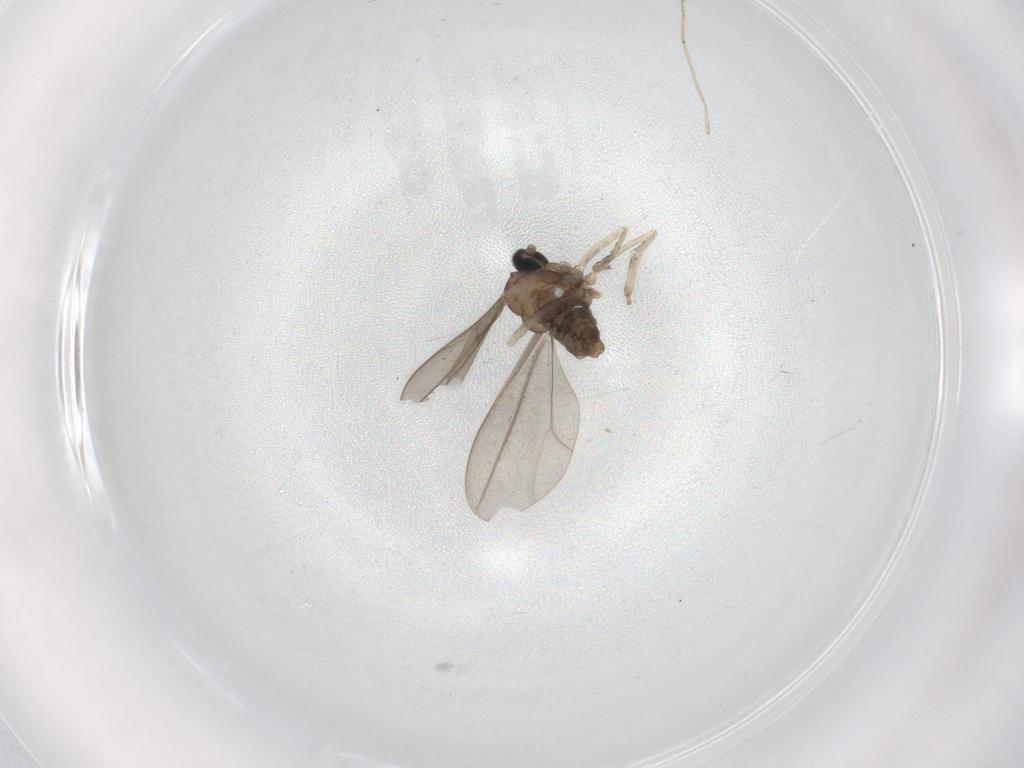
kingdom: Animalia
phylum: Arthropoda
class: Insecta
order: Diptera
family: Cecidomyiidae
